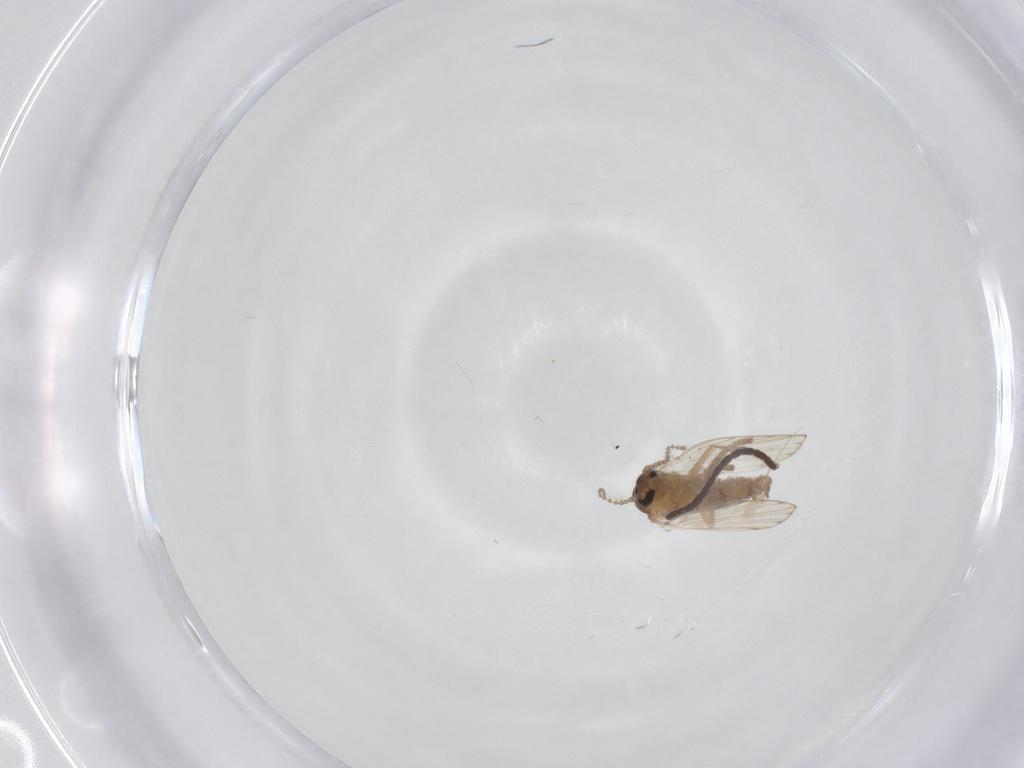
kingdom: Animalia
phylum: Arthropoda
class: Insecta
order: Diptera
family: Psychodidae
